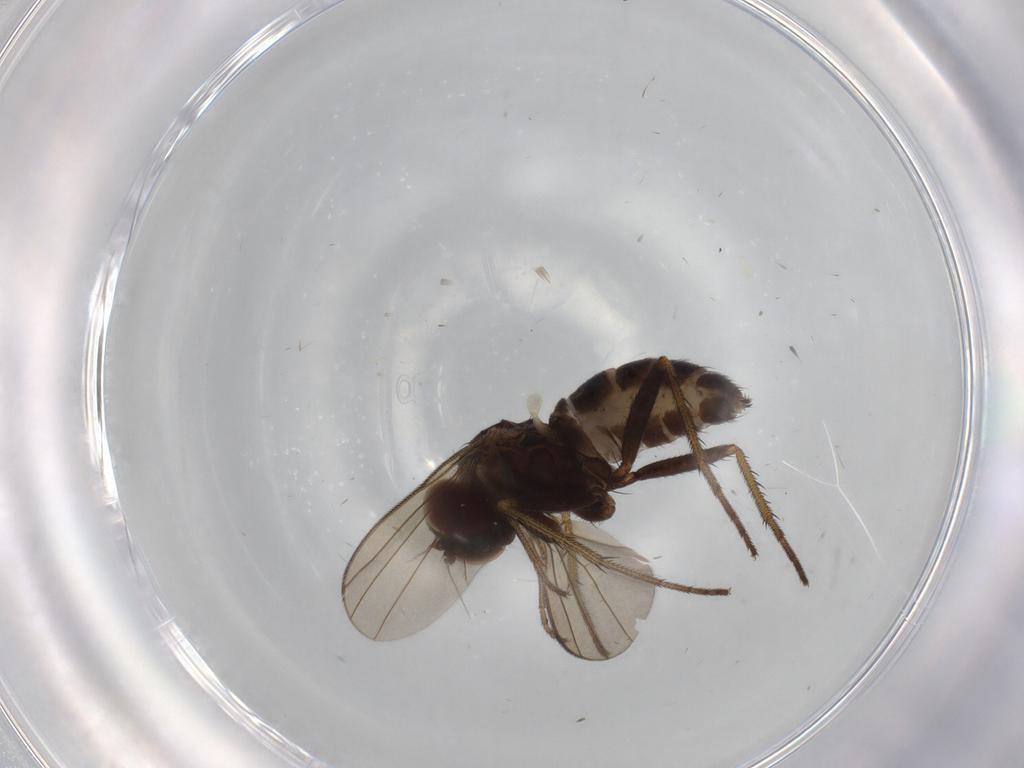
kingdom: Animalia
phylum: Arthropoda
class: Insecta
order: Diptera
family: Dolichopodidae
